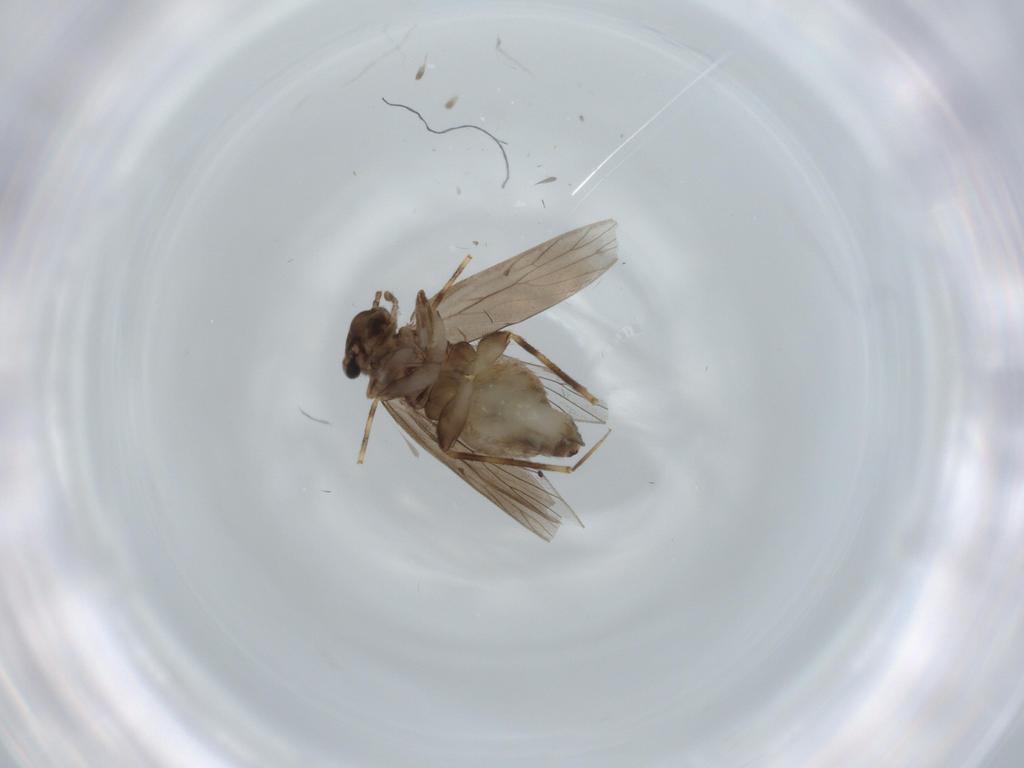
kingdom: Animalia
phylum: Arthropoda
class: Insecta
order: Psocodea
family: Lepidopsocidae
